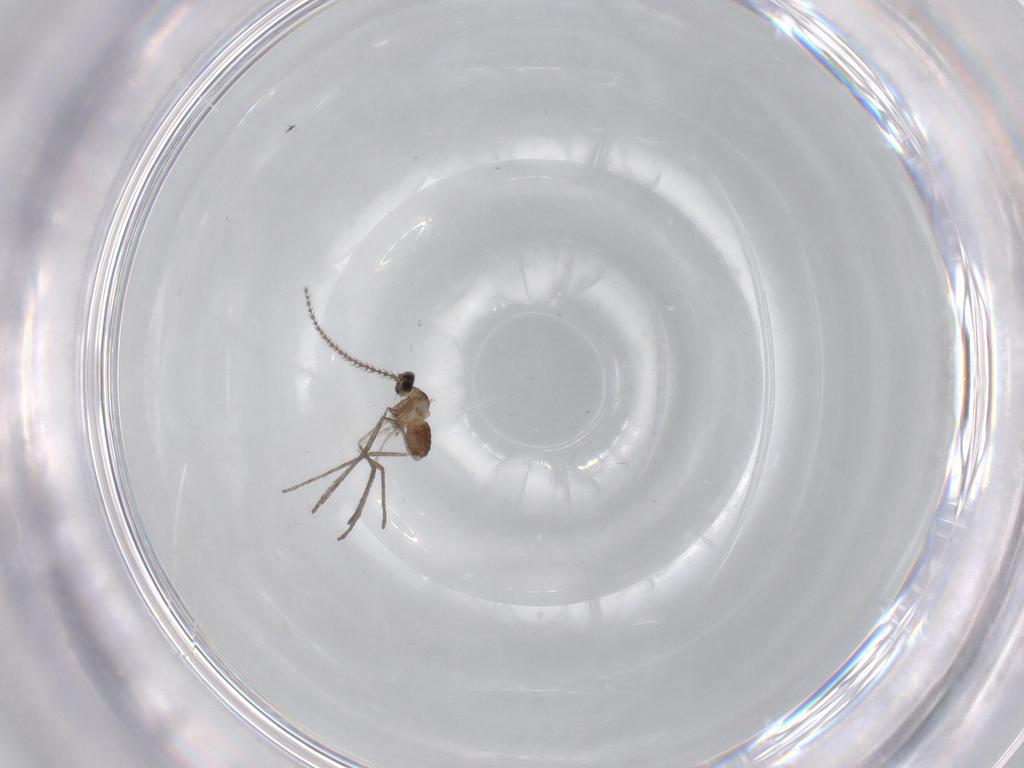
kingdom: Animalia
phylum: Arthropoda
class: Insecta
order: Diptera
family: Cecidomyiidae
